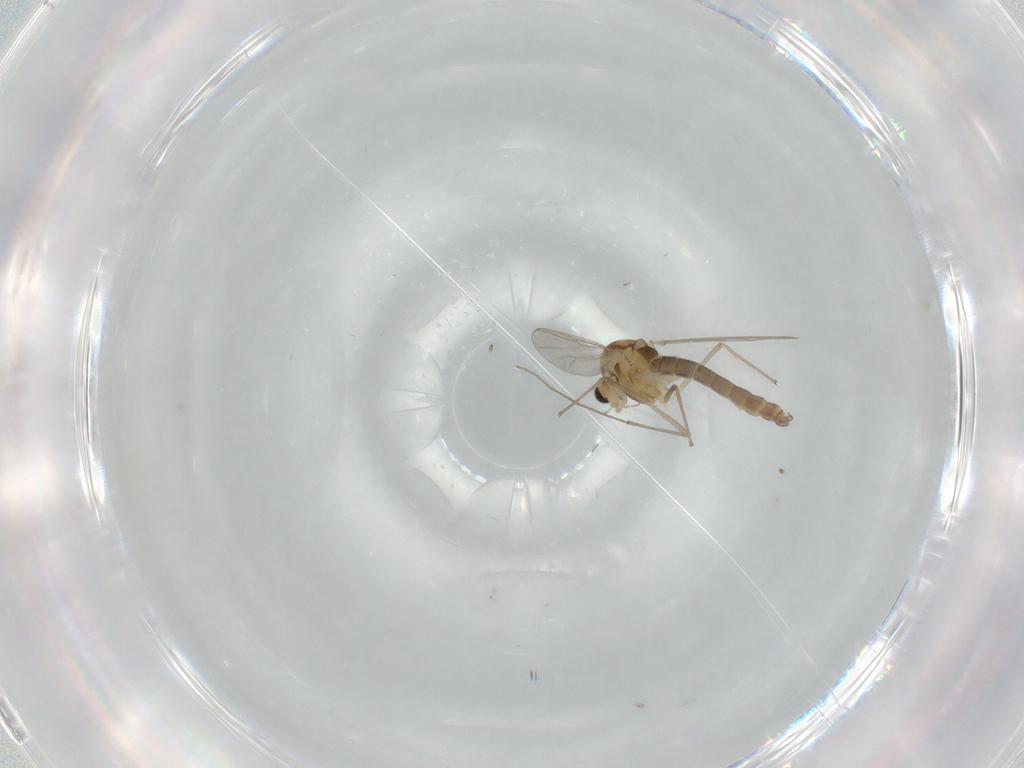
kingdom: Animalia
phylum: Arthropoda
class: Insecta
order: Diptera
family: Chironomidae
